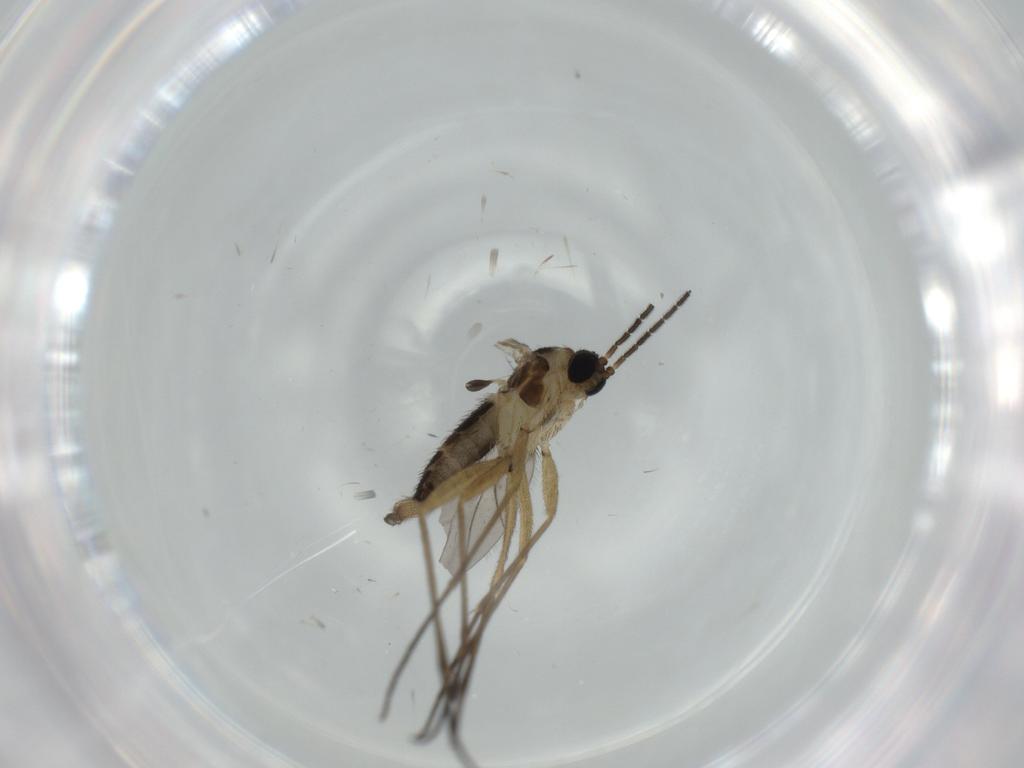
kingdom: Animalia
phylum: Arthropoda
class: Insecta
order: Diptera
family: Sciaridae
